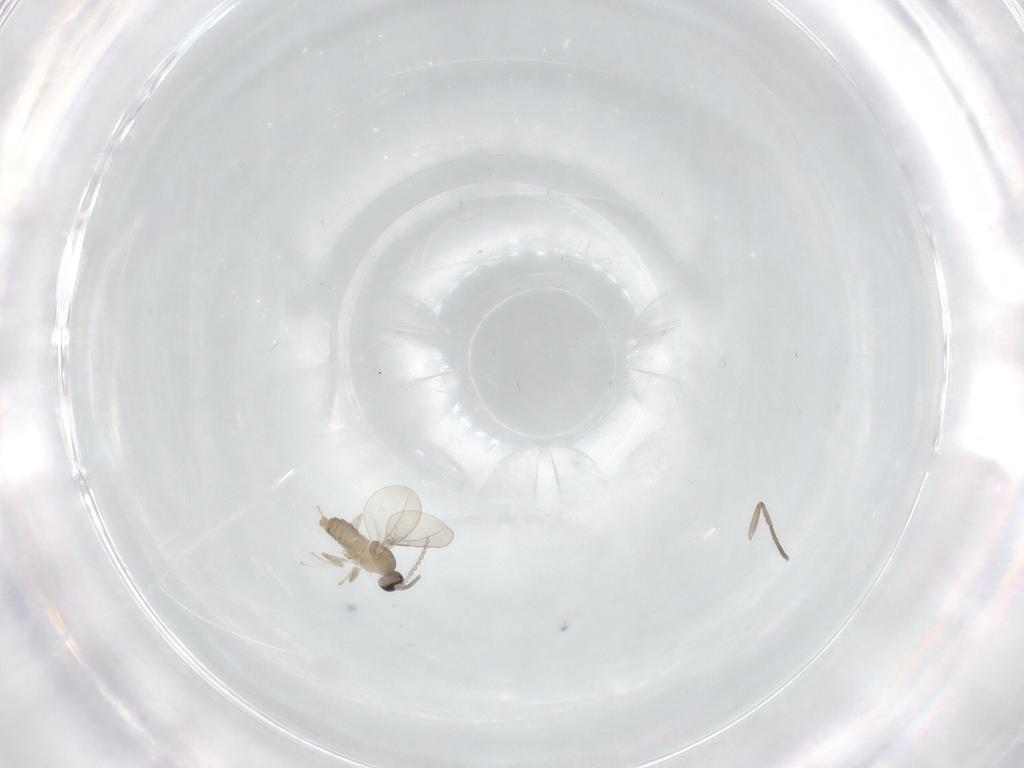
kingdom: Animalia
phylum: Arthropoda
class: Insecta
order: Diptera
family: Cecidomyiidae
